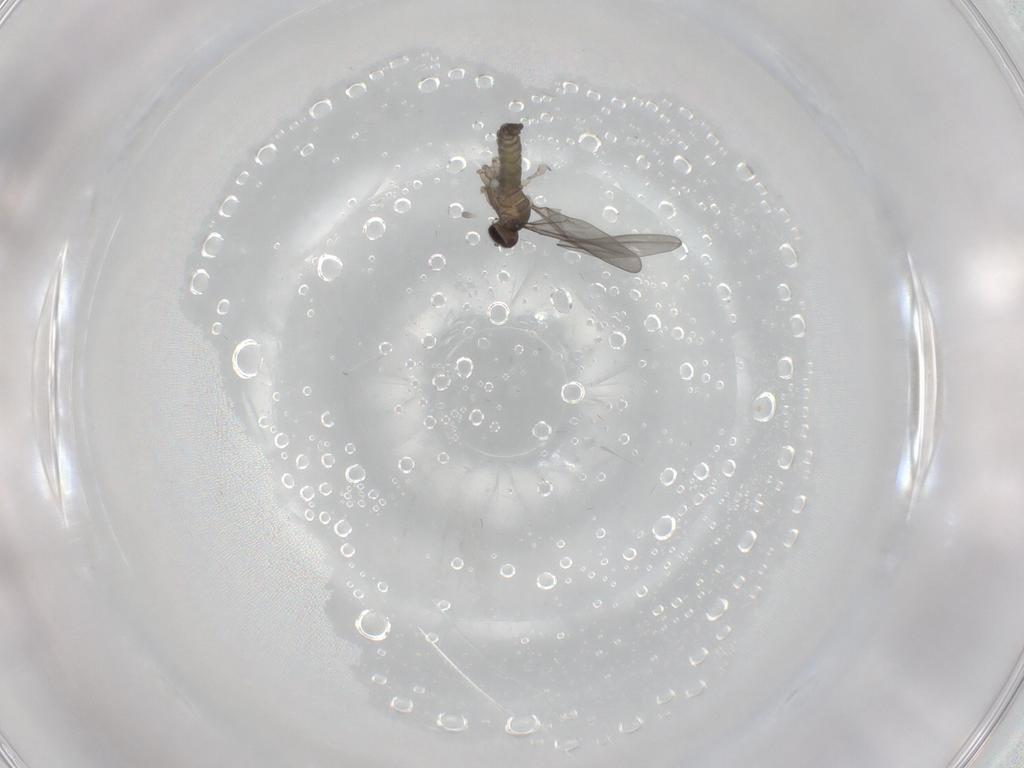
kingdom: Animalia
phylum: Arthropoda
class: Insecta
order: Diptera
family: Cecidomyiidae
